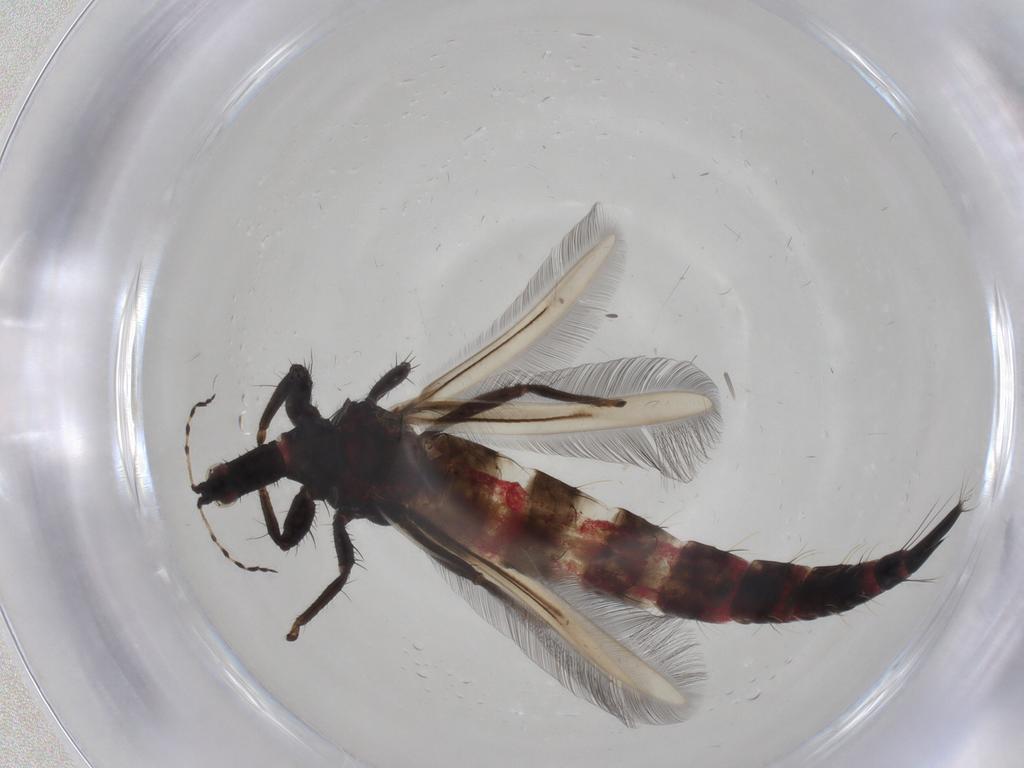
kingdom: Animalia
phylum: Arthropoda
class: Insecta
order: Thysanoptera
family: Phlaeothripidae
